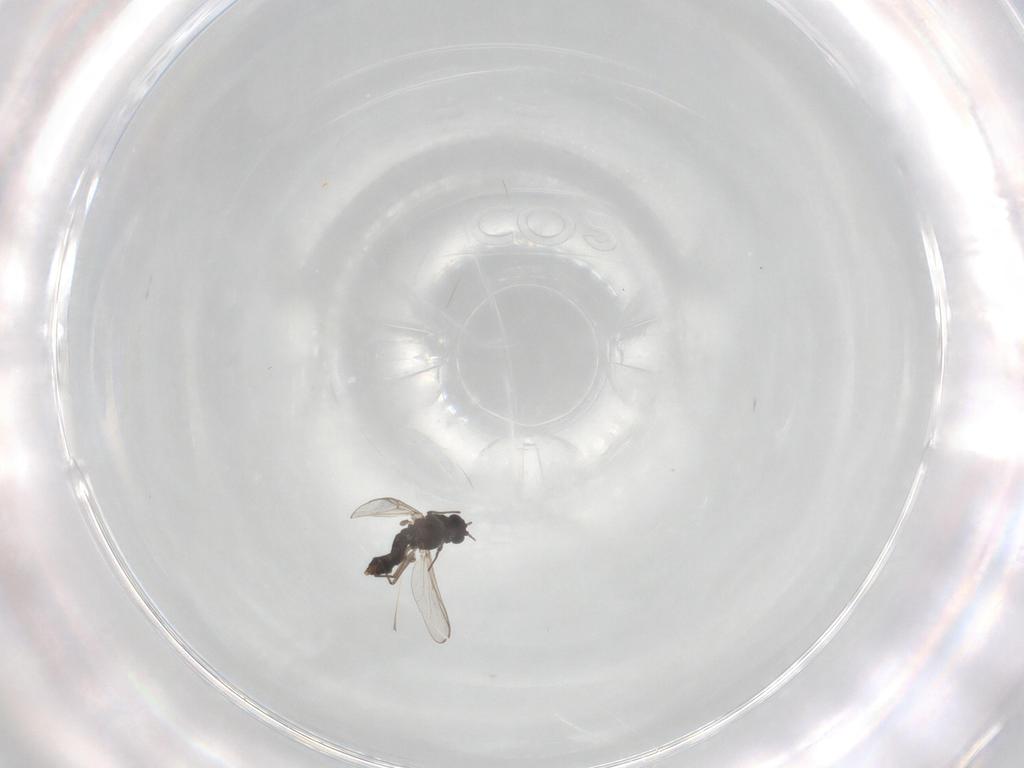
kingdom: Animalia
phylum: Arthropoda
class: Insecta
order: Diptera
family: Chironomidae
